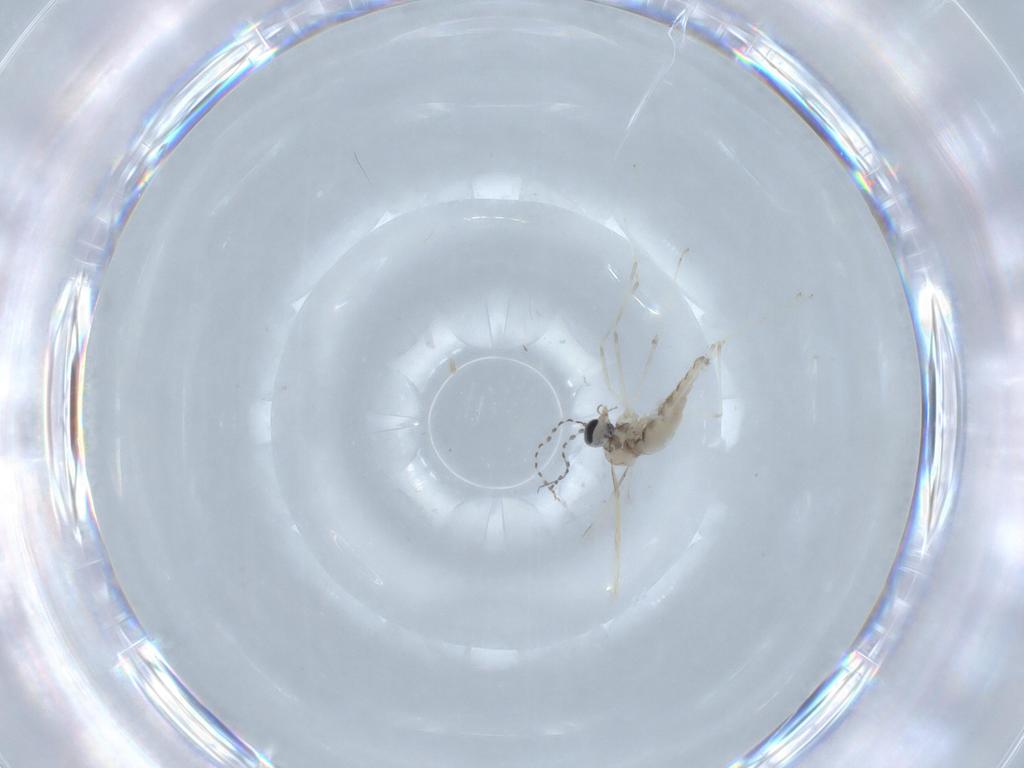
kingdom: Animalia
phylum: Arthropoda
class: Insecta
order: Diptera
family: Cecidomyiidae
